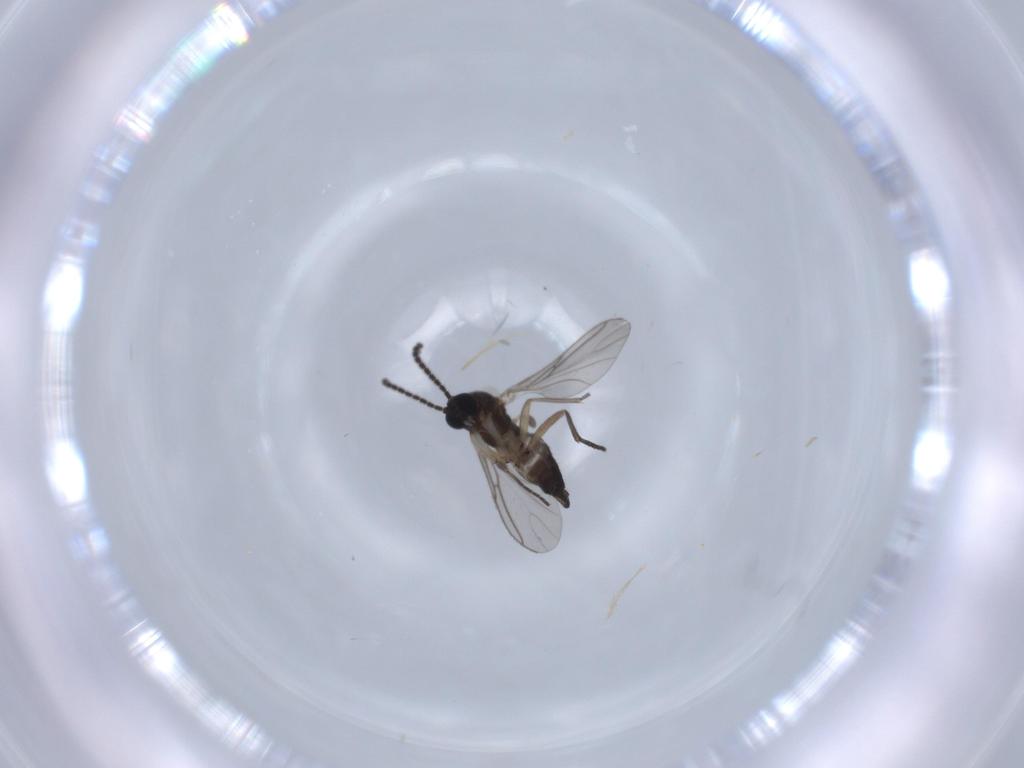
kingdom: Animalia
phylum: Arthropoda
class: Insecta
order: Diptera
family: Sciaridae
